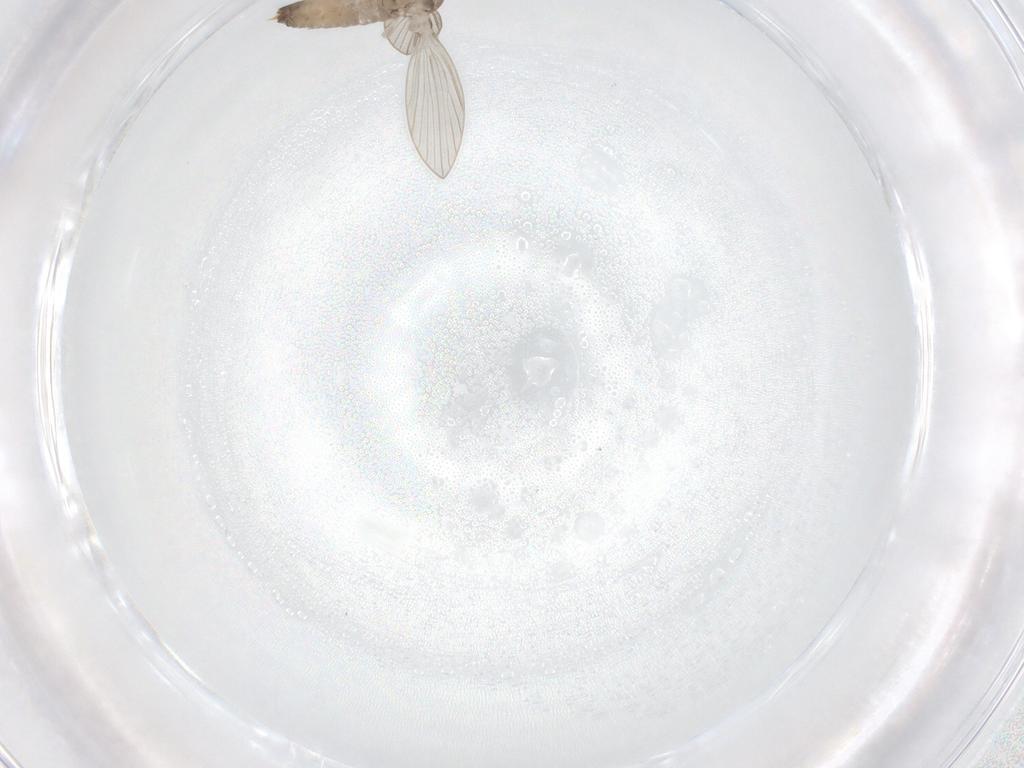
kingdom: Animalia
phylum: Arthropoda
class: Insecta
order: Diptera
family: Psychodidae
